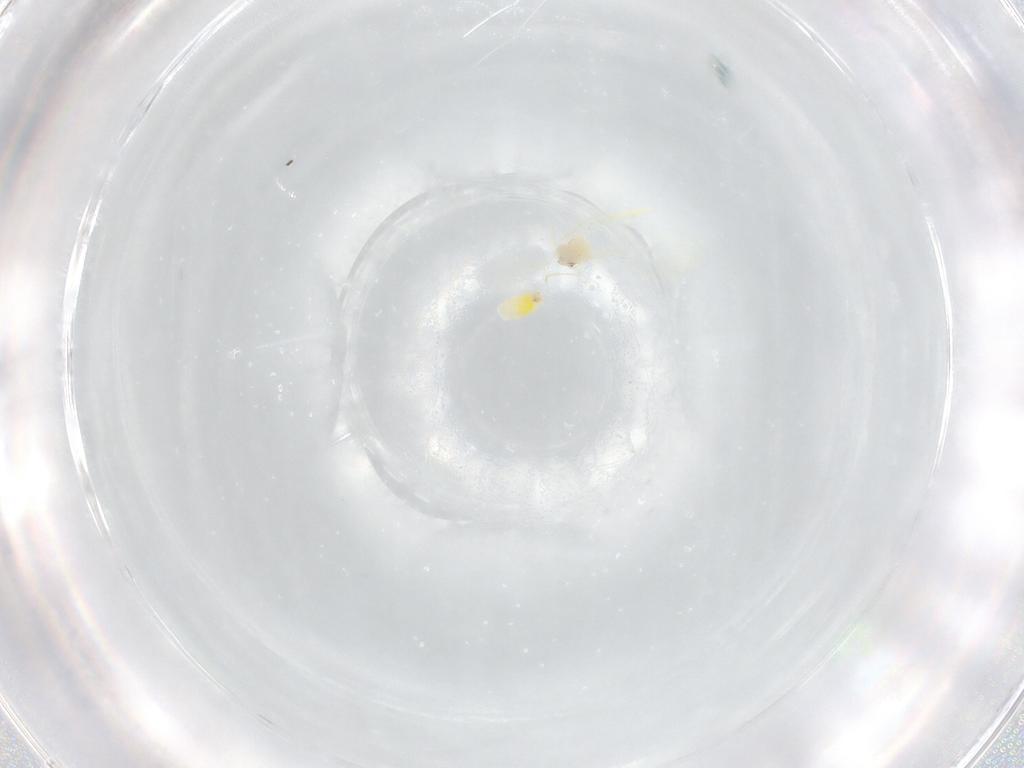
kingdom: Animalia
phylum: Arthropoda
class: Insecta
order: Hemiptera
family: Aleyrodidae
